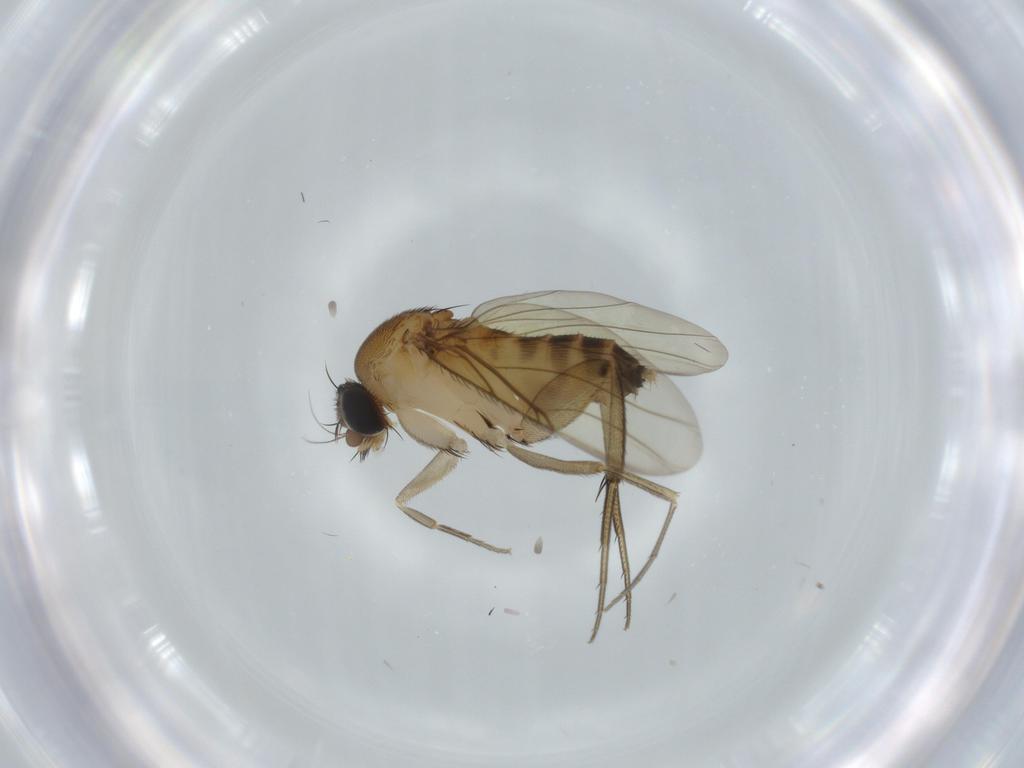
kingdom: Animalia
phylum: Arthropoda
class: Insecta
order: Diptera
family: Phoridae
